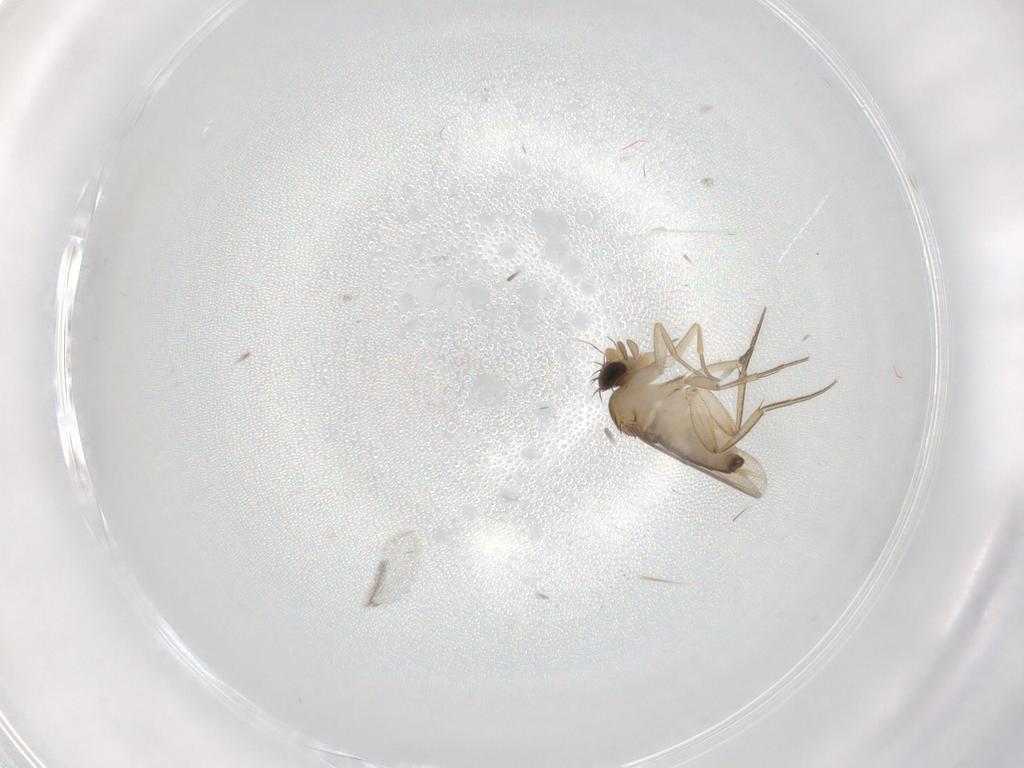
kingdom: Animalia
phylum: Arthropoda
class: Insecta
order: Diptera
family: Phoridae
